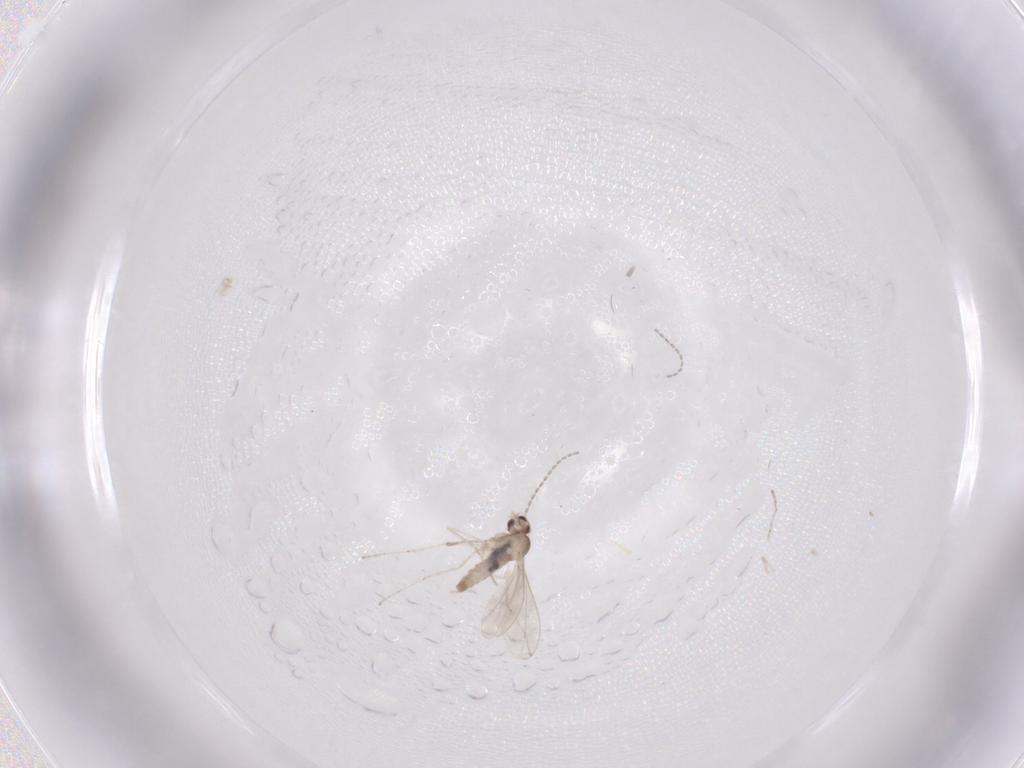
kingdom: Animalia
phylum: Arthropoda
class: Insecta
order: Diptera
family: Cecidomyiidae
